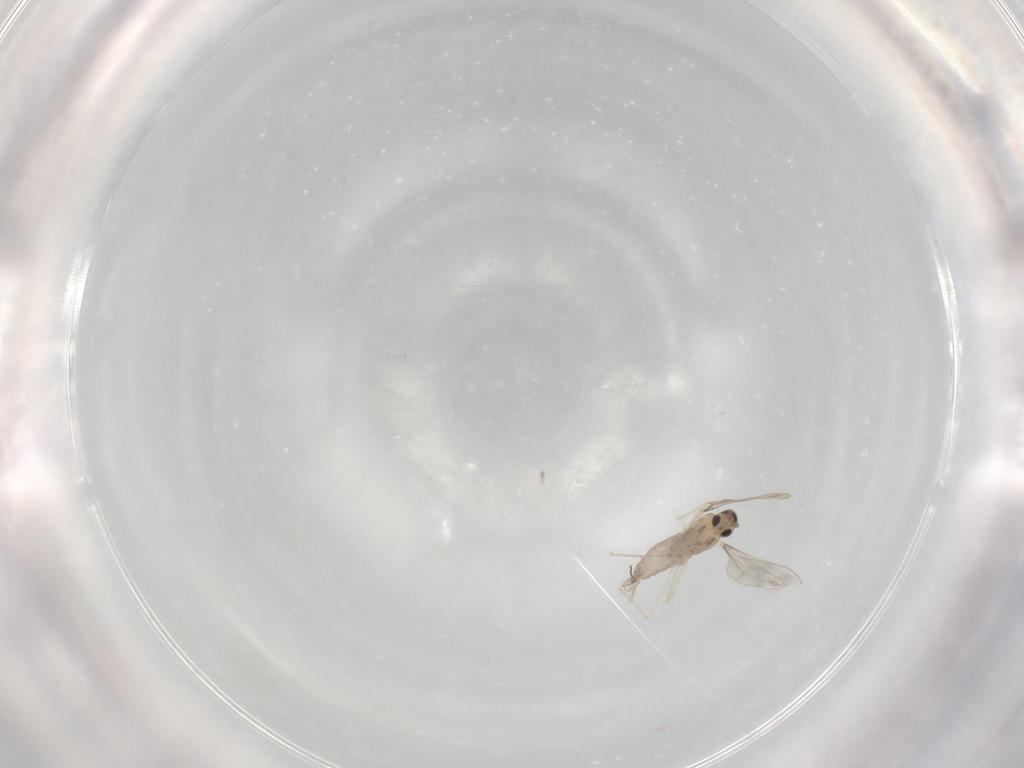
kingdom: Animalia
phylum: Arthropoda
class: Insecta
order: Diptera
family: Cecidomyiidae
